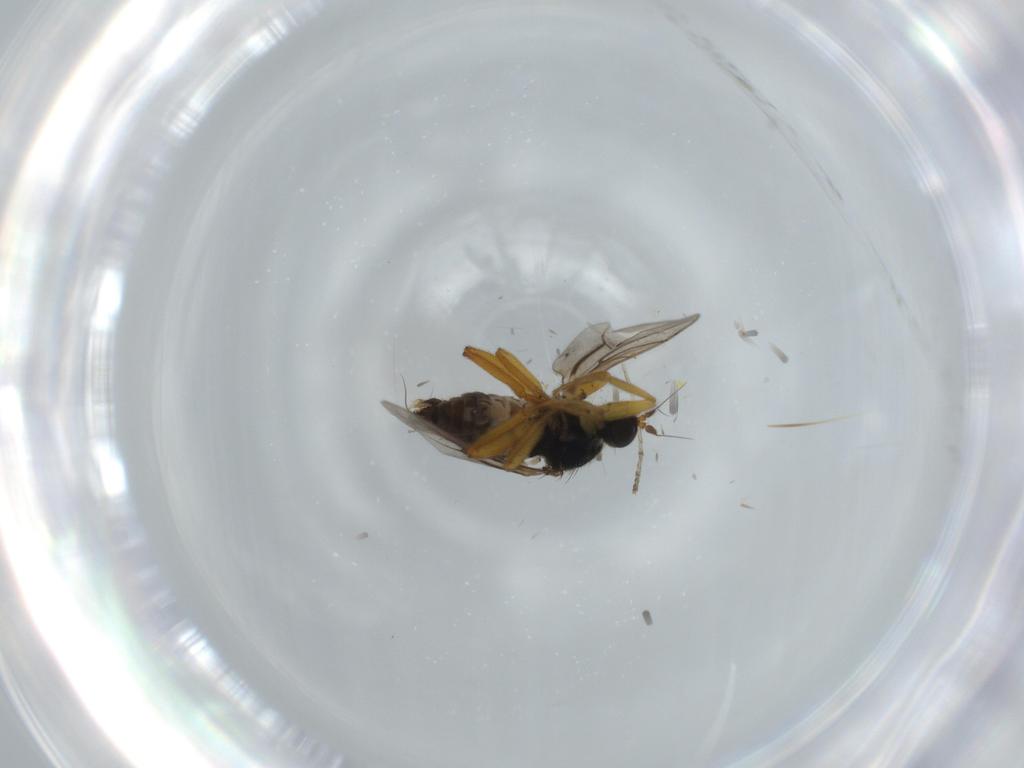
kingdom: Animalia
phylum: Arthropoda
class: Insecta
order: Diptera
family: Hybotidae
